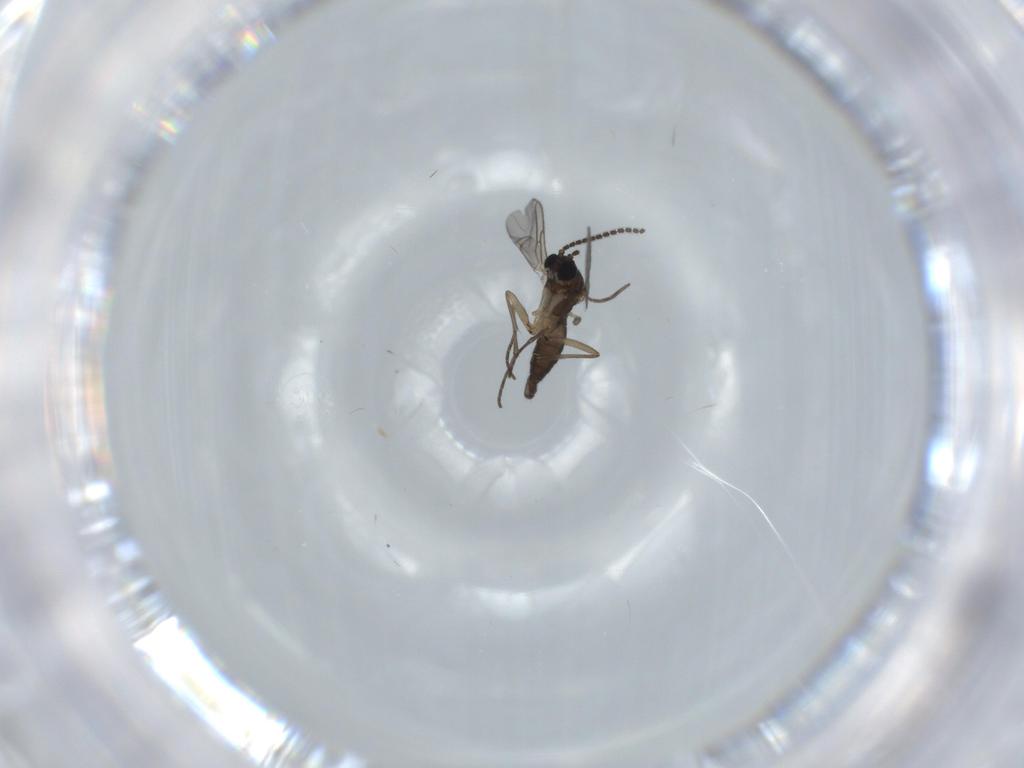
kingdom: Animalia
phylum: Arthropoda
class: Insecta
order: Diptera
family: Sciaridae
